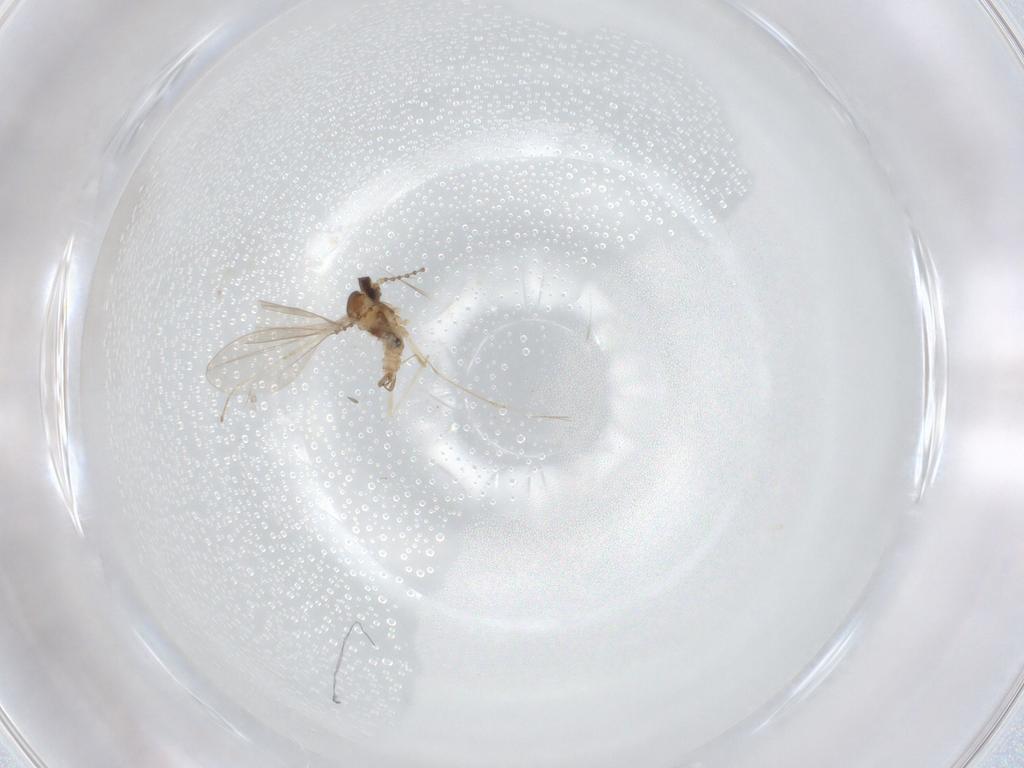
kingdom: Animalia
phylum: Arthropoda
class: Insecta
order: Diptera
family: Cecidomyiidae
